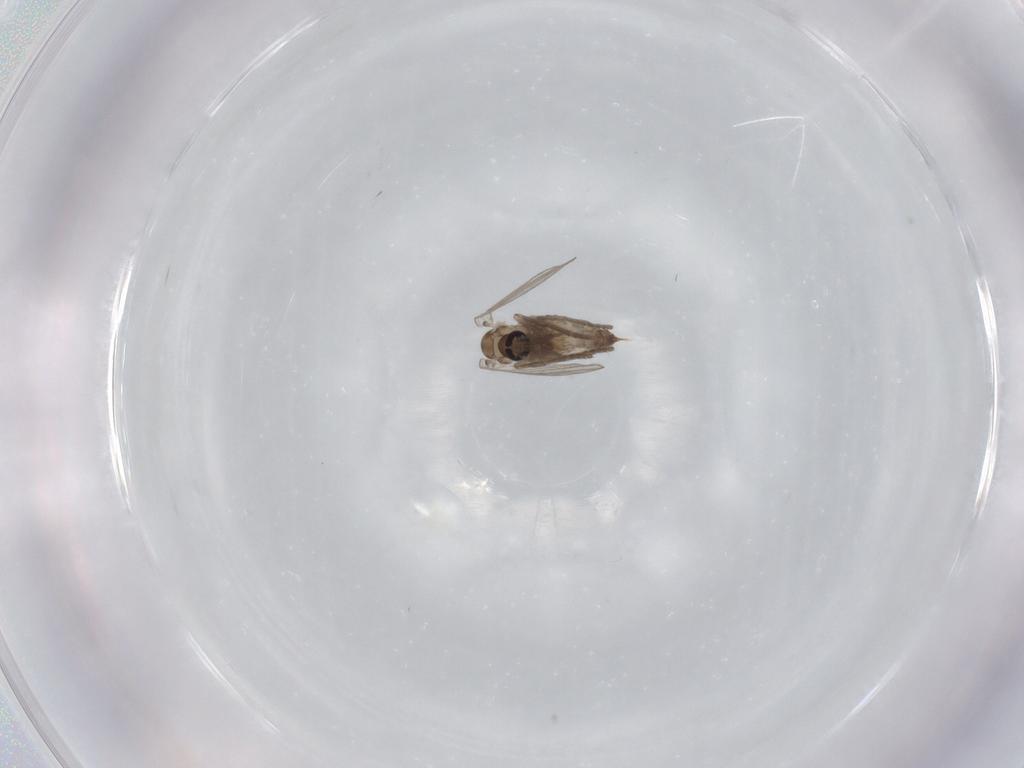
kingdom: Animalia
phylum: Arthropoda
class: Insecta
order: Diptera
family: Psychodidae
